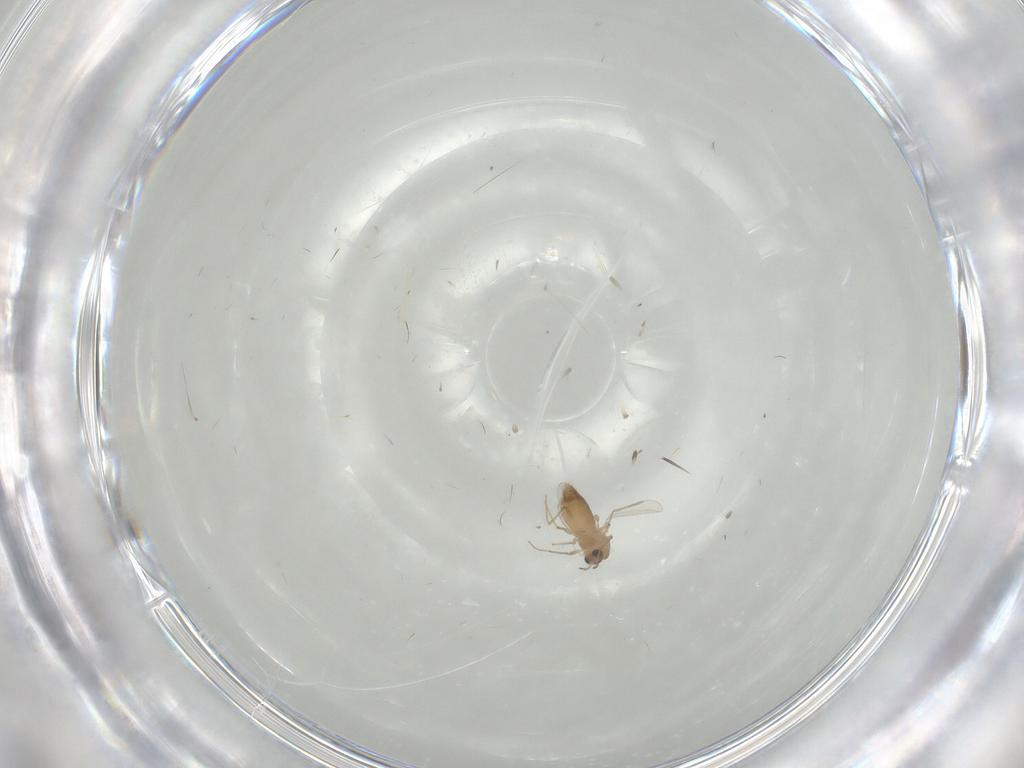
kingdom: Animalia
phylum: Arthropoda
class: Insecta
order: Diptera
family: Chironomidae
